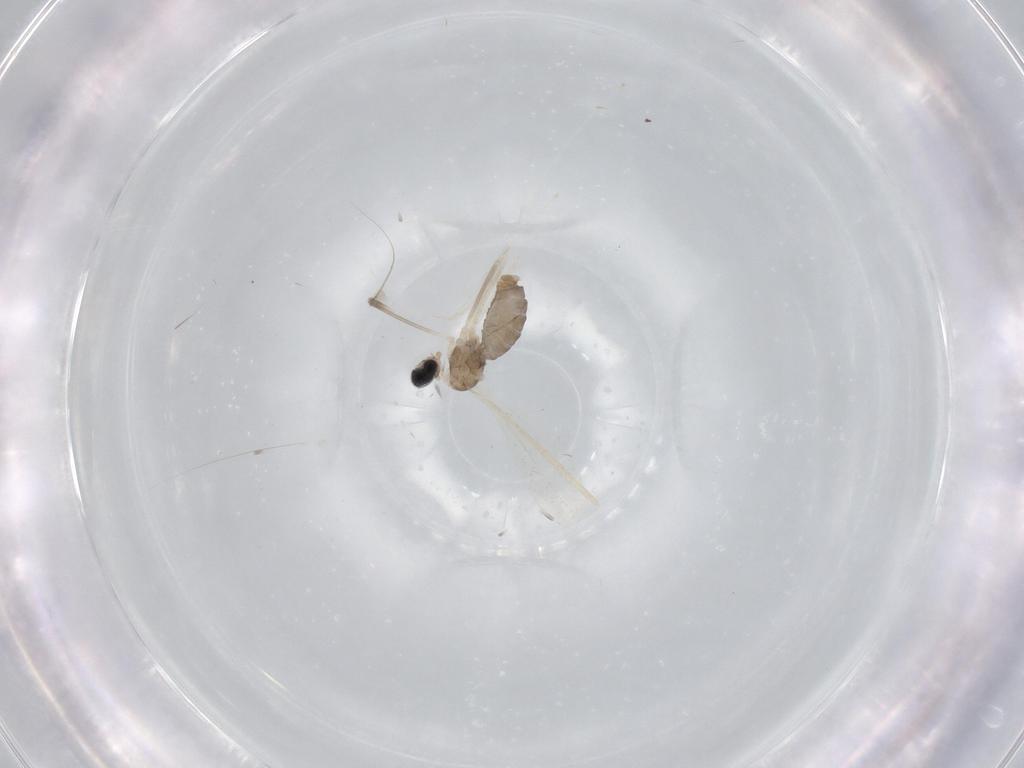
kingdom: Animalia
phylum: Arthropoda
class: Insecta
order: Diptera
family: Cecidomyiidae
